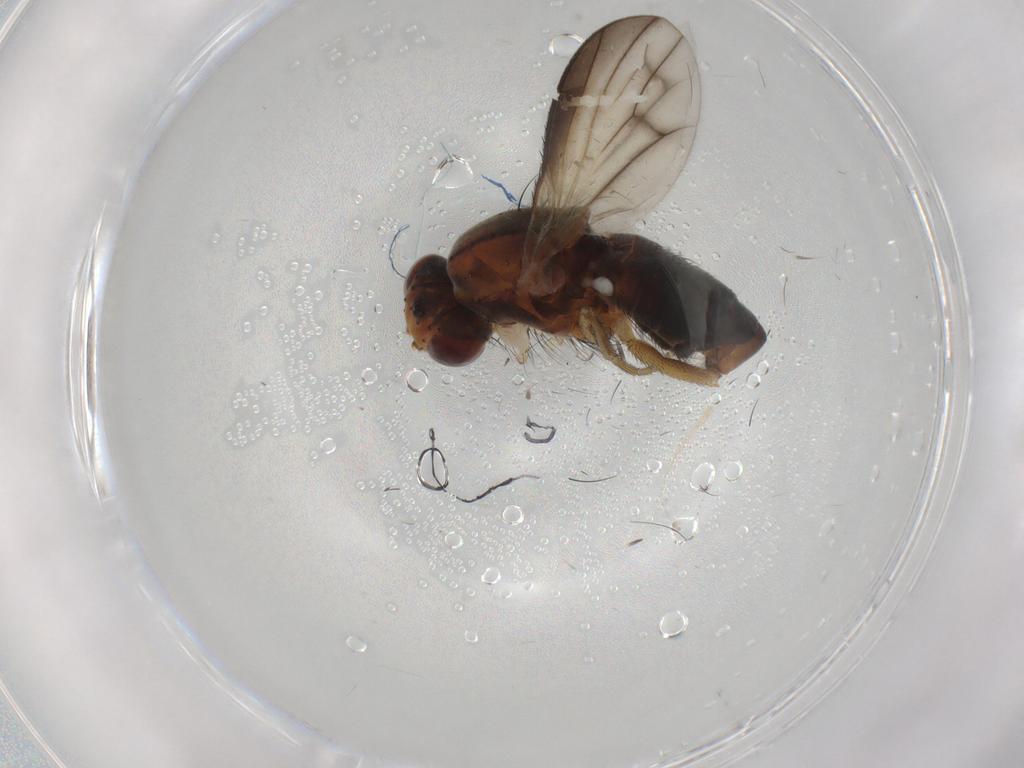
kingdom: Animalia
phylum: Arthropoda
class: Insecta
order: Diptera
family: Heleomyzidae
